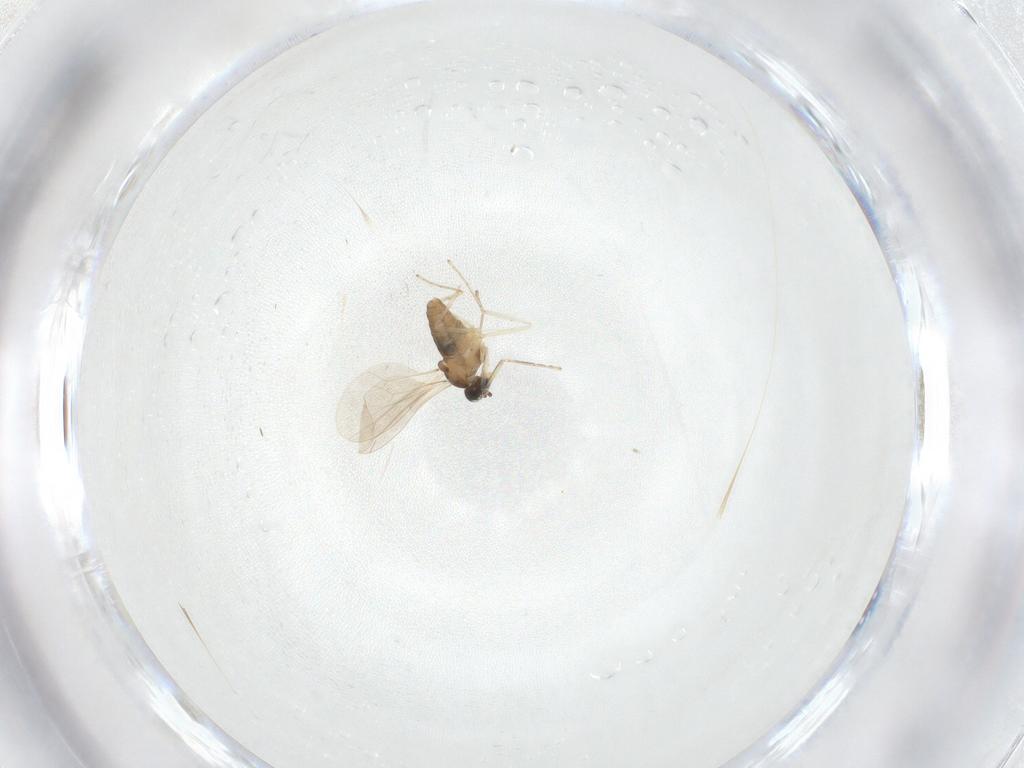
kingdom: Animalia
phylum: Arthropoda
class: Insecta
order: Diptera
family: Cecidomyiidae
